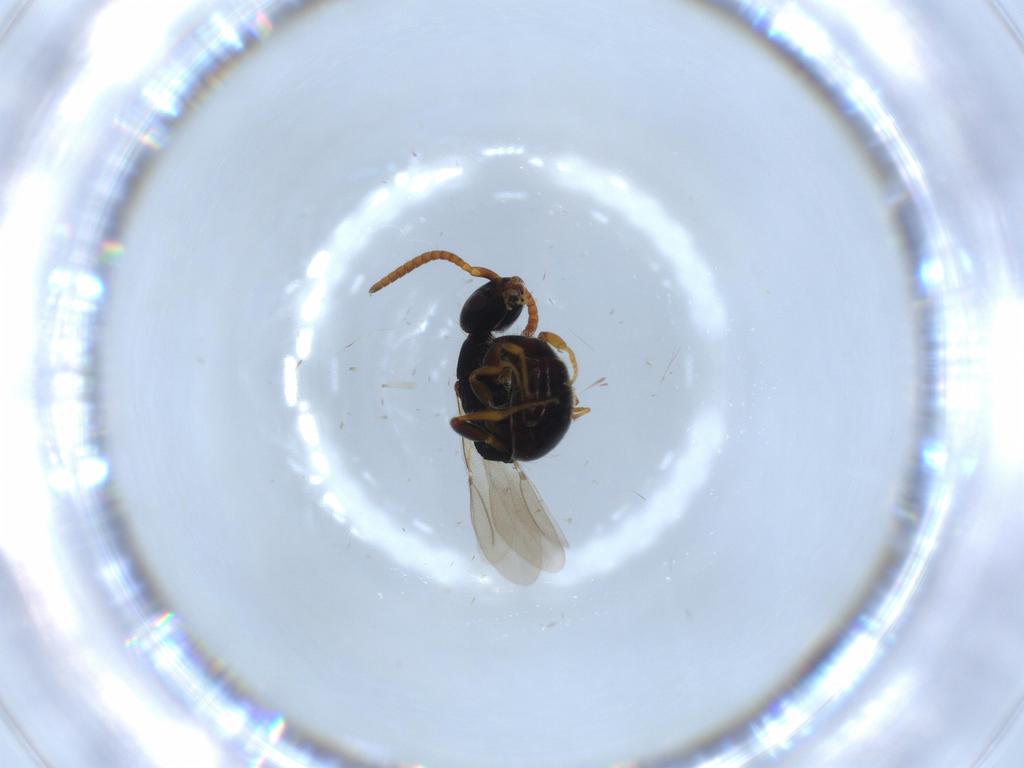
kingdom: Animalia
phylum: Arthropoda
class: Insecta
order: Hymenoptera
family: Bethylidae
